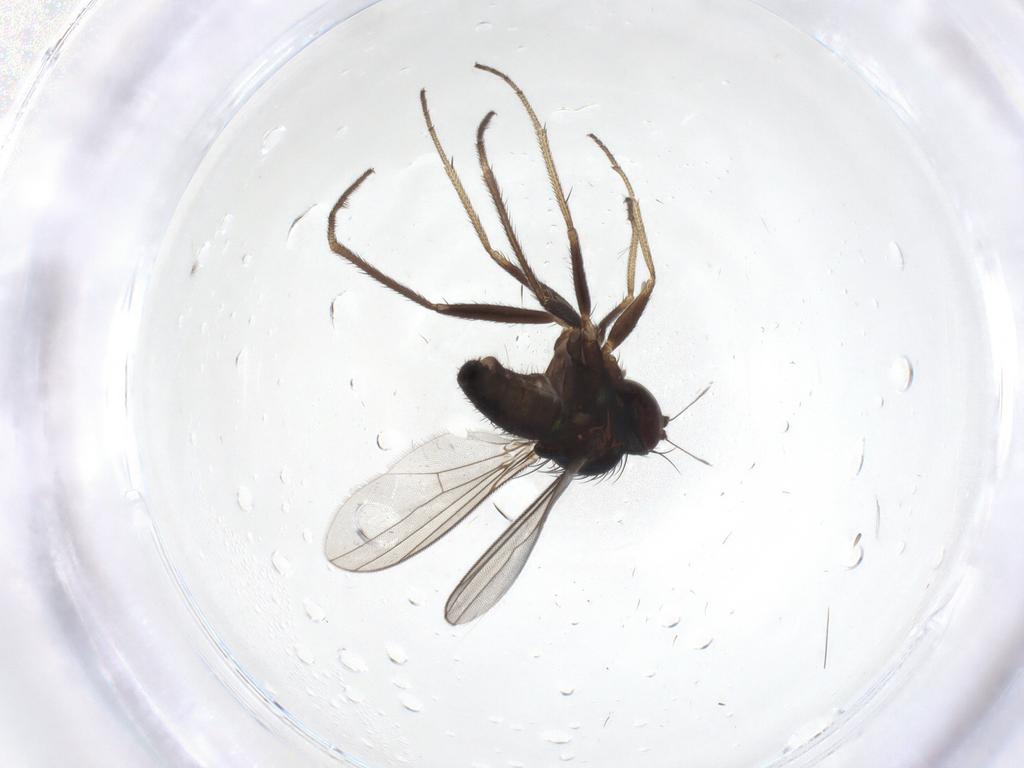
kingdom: Animalia
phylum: Arthropoda
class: Insecta
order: Diptera
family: Dolichopodidae
